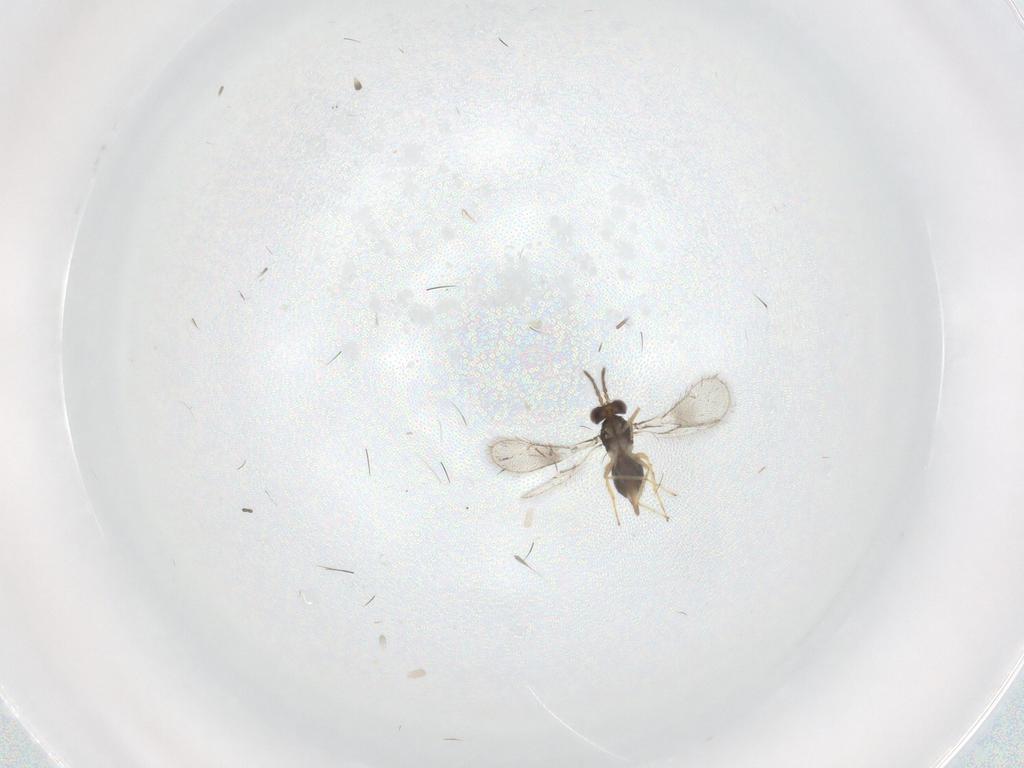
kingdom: Animalia
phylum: Arthropoda
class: Insecta
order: Hymenoptera
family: Eulophidae
